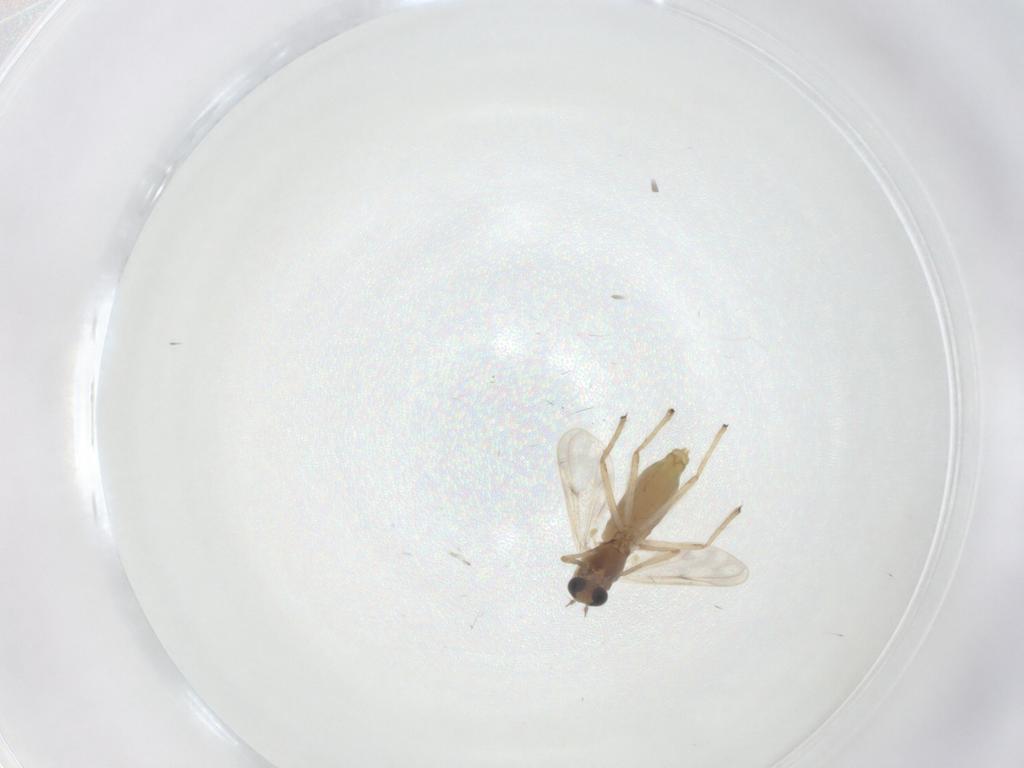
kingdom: Animalia
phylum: Arthropoda
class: Insecta
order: Diptera
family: Chironomidae
